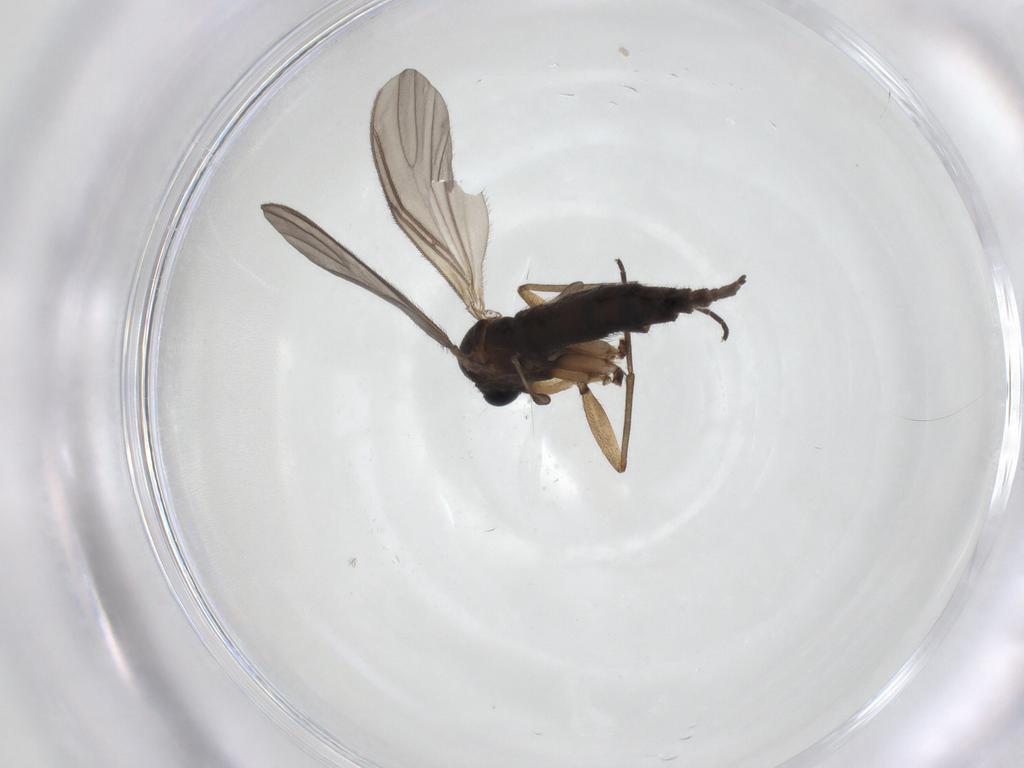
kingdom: Animalia
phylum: Arthropoda
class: Insecta
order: Diptera
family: Sciaridae
